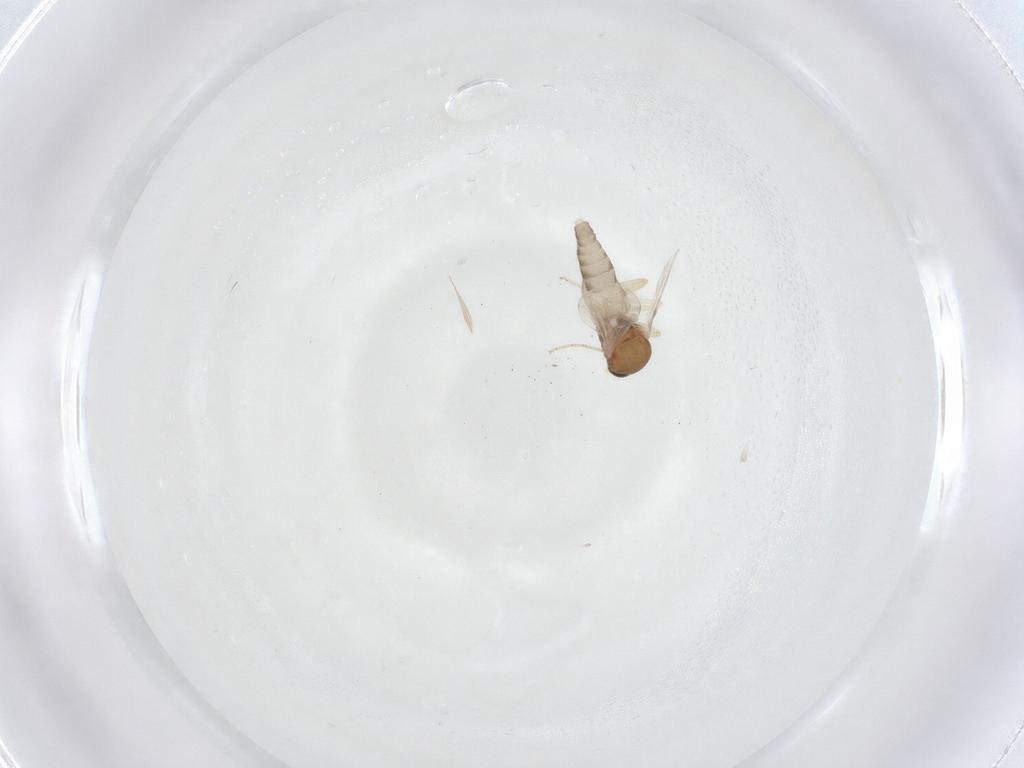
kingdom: Animalia
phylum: Arthropoda
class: Insecta
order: Diptera
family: Ceratopogonidae
